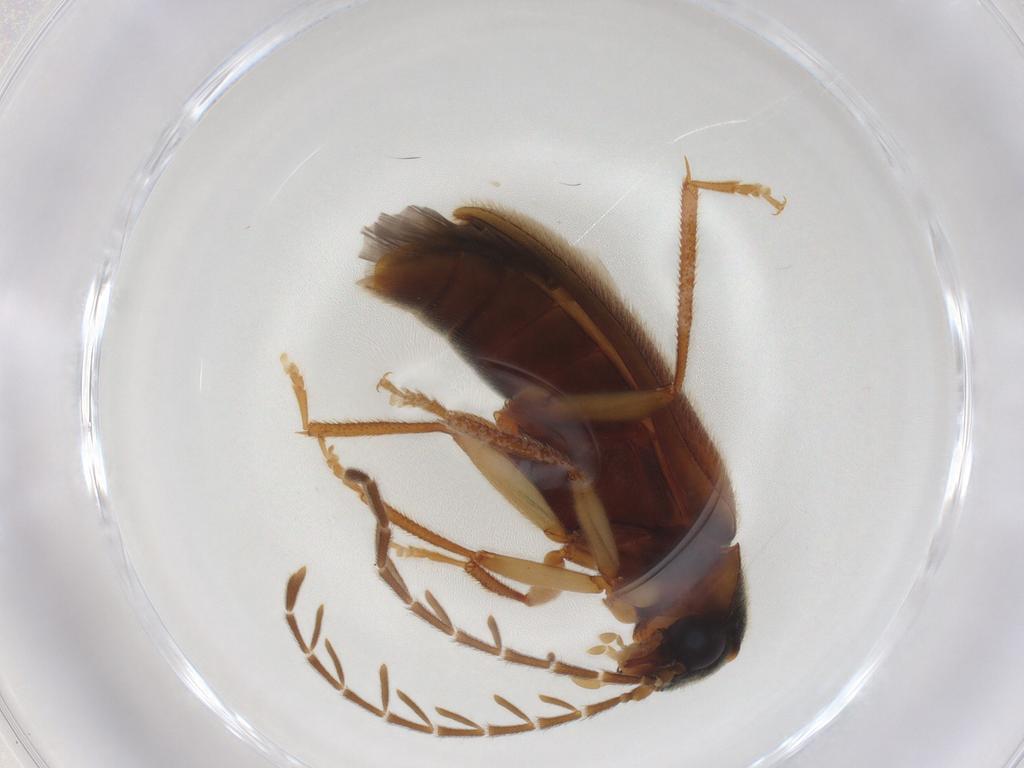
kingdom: Animalia
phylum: Arthropoda
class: Insecta
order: Coleoptera
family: Ptilodactylidae
